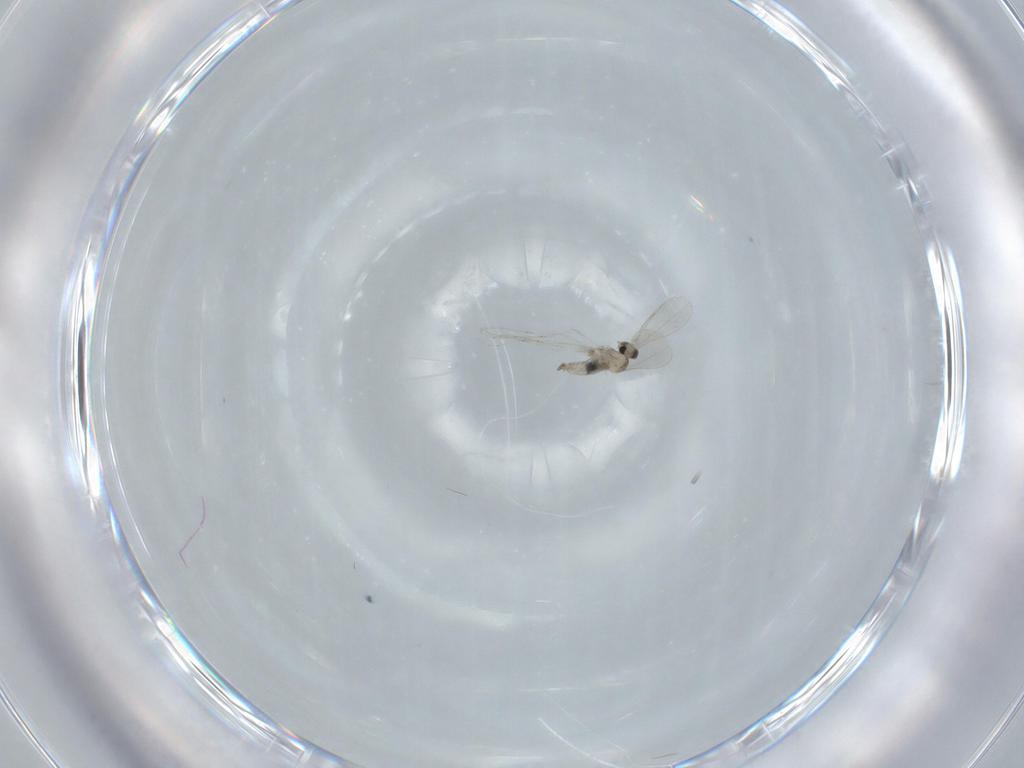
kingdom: Animalia
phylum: Arthropoda
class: Insecta
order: Diptera
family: Cecidomyiidae
